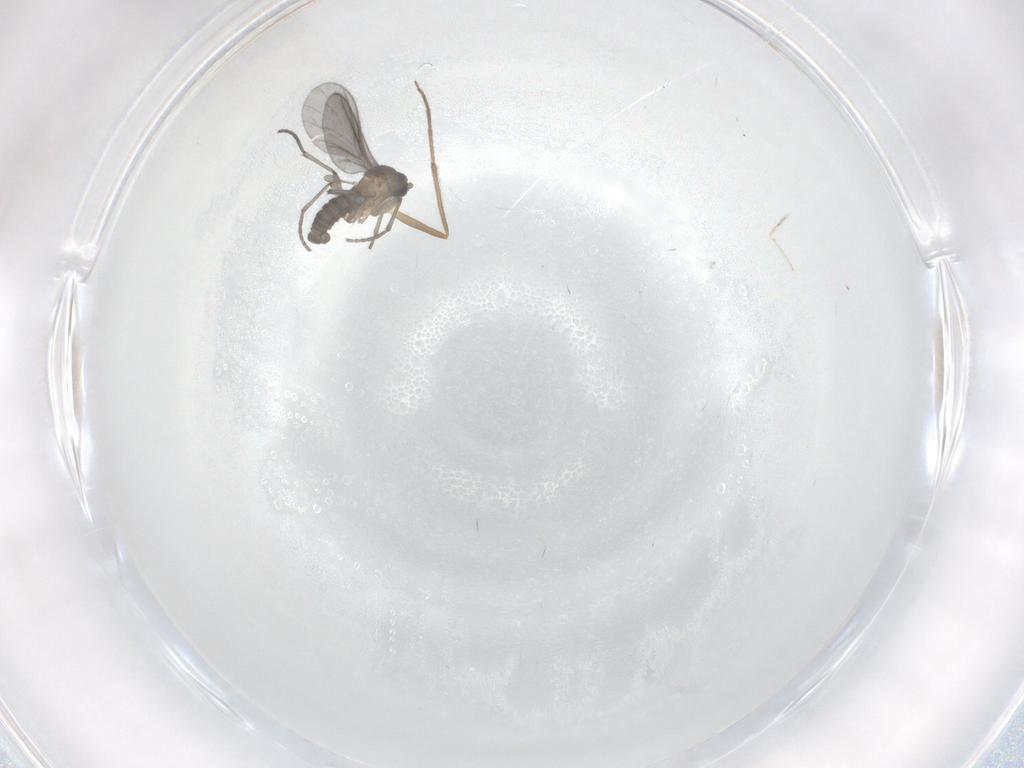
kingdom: Animalia
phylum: Arthropoda
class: Insecta
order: Diptera
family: Sciaridae
